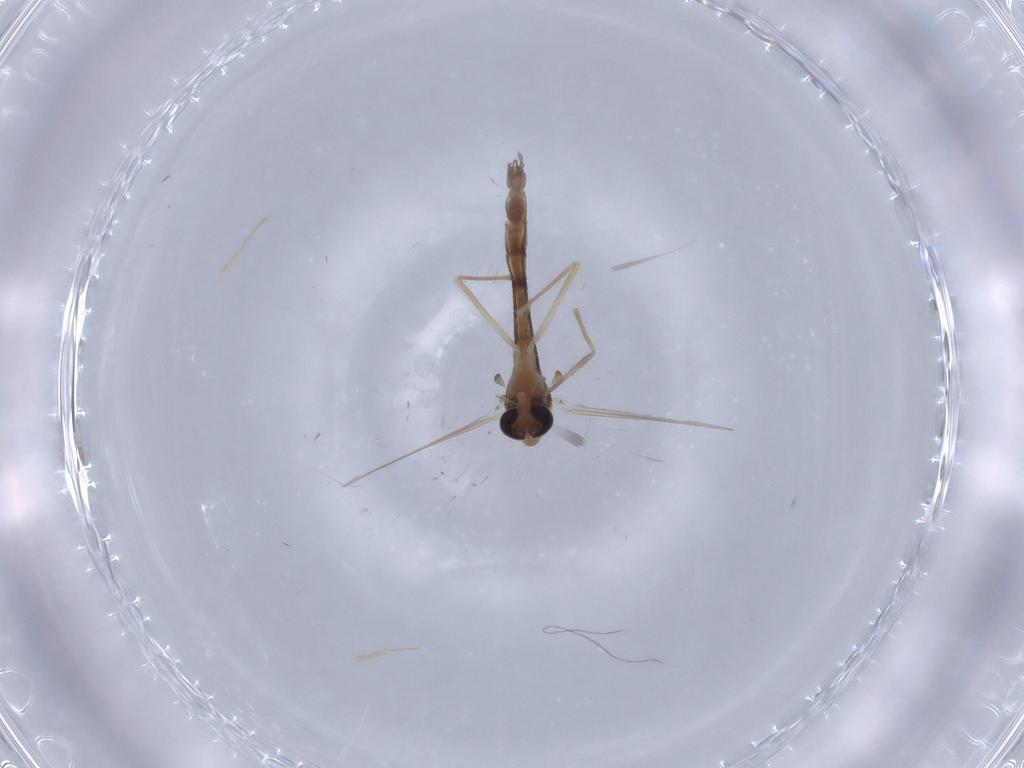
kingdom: Animalia
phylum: Arthropoda
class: Insecta
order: Diptera
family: Chironomidae
